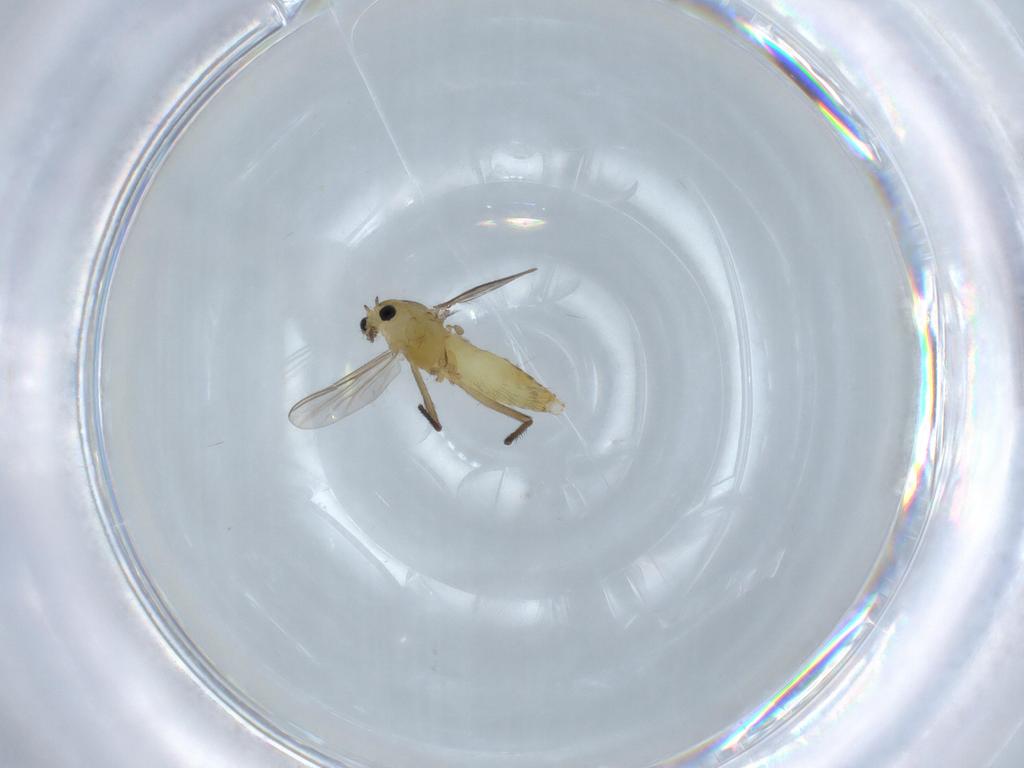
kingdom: Animalia
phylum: Arthropoda
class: Insecta
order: Diptera
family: Chironomidae
